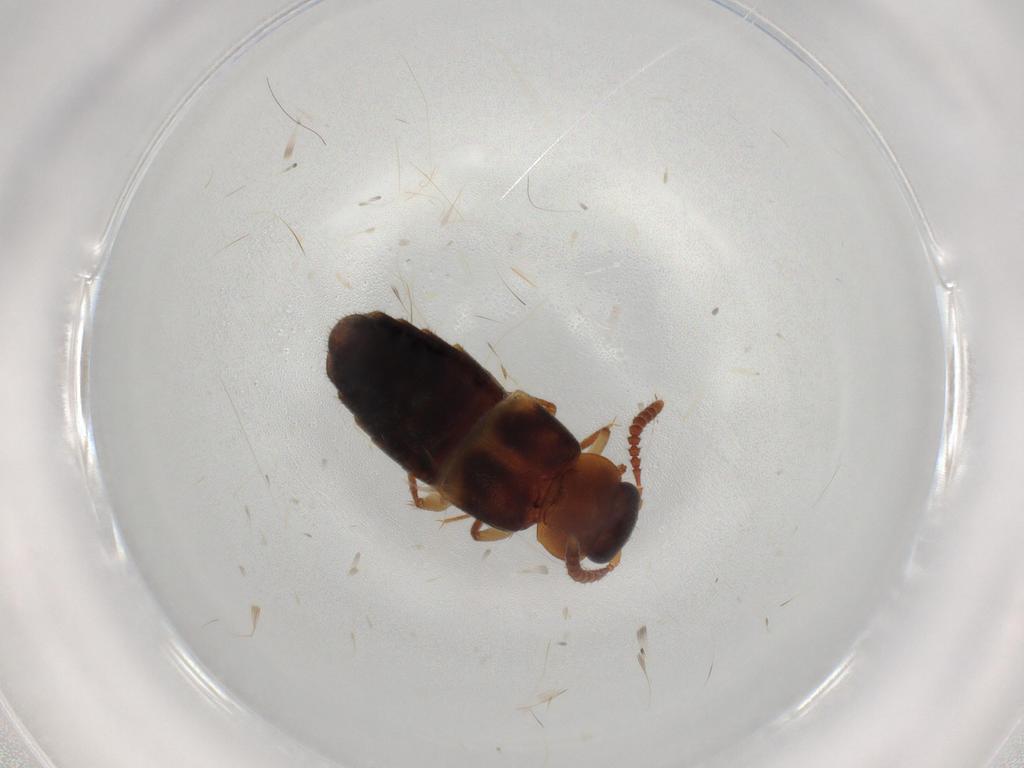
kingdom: Animalia
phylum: Arthropoda
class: Insecta
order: Coleoptera
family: Staphylinidae
